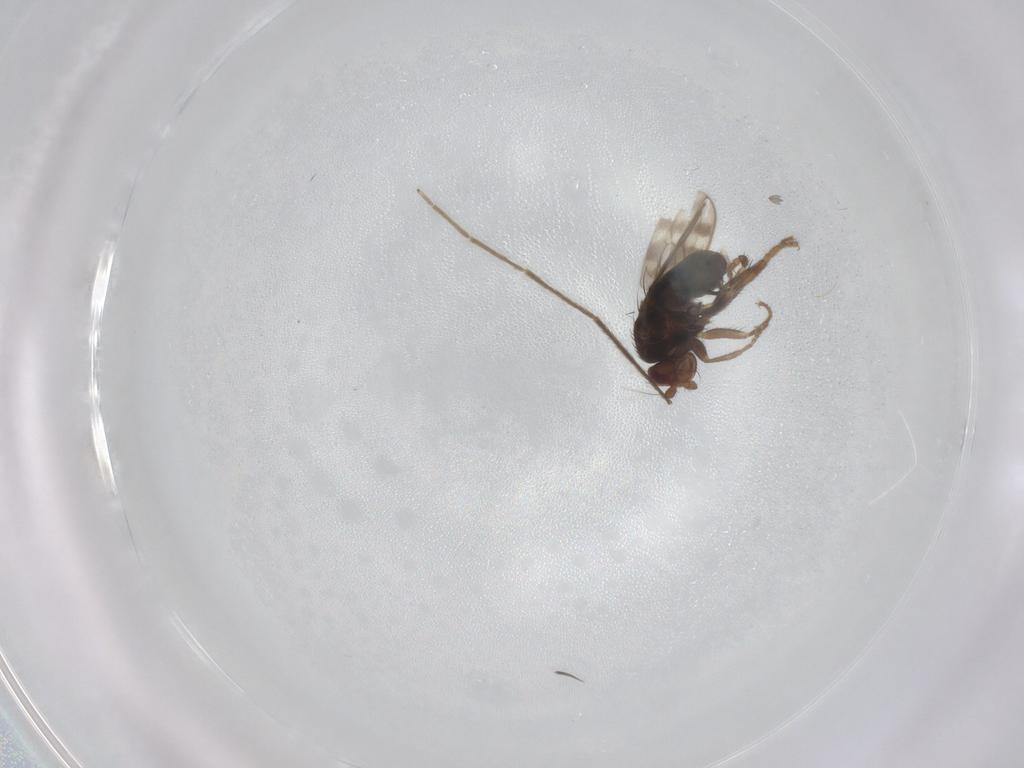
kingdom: Animalia
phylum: Arthropoda
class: Insecta
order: Diptera
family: Sphaeroceridae
